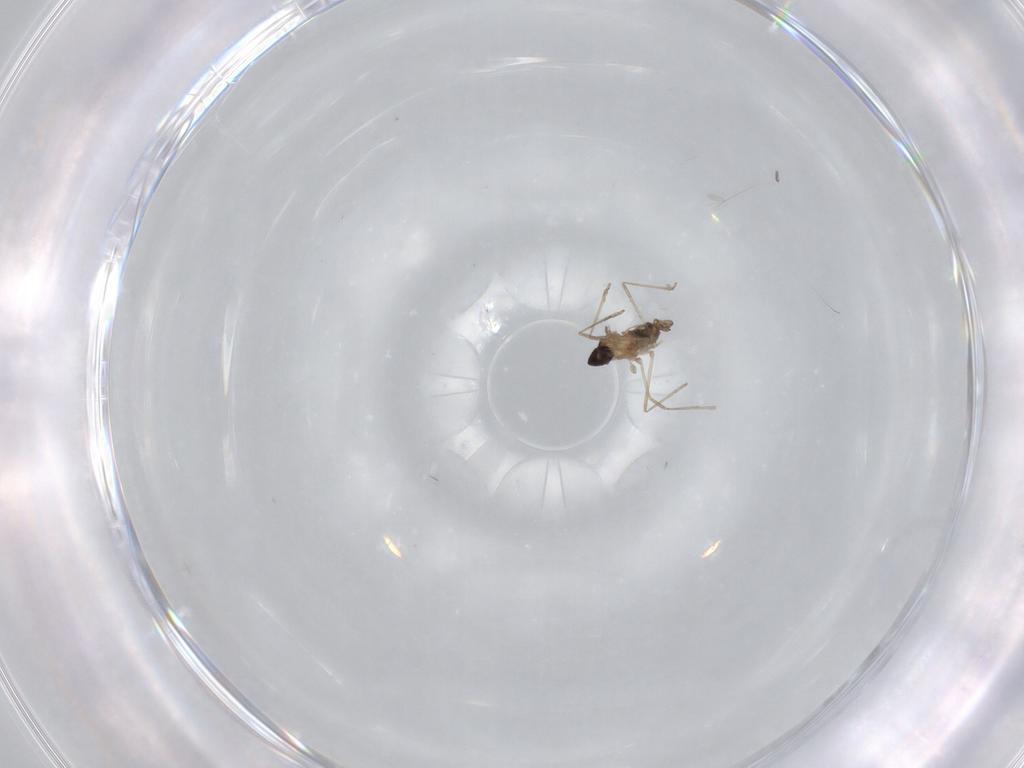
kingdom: Animalia
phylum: Arthropoda
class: Insecta
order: Diptera
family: Cecidomyiidae
